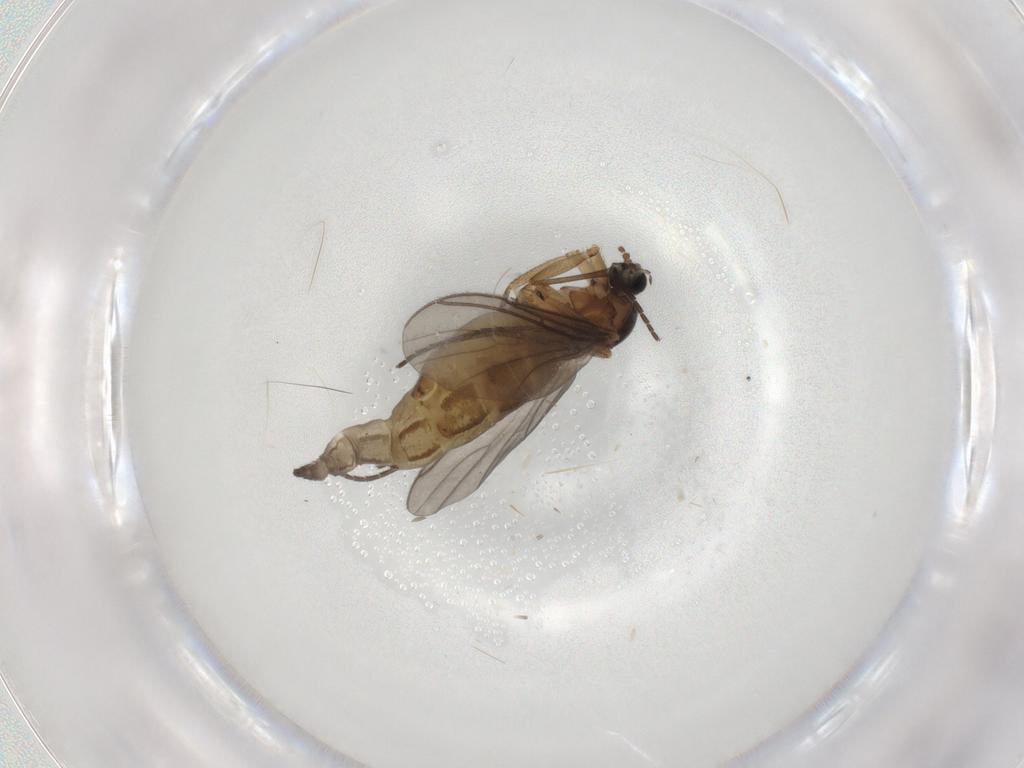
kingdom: Animalia
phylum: Arthropoda
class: Insecta
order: Diptera
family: Sciaridae
